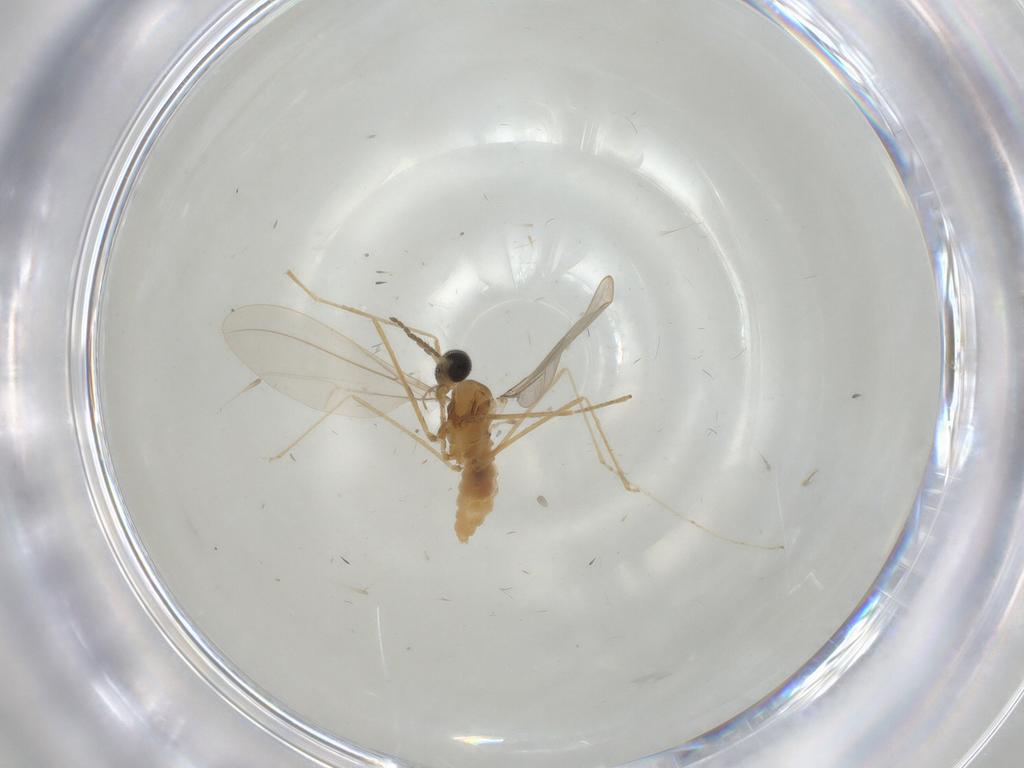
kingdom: Animalia
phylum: Arthropoda
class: Insecta
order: Diptera
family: Cecidomyiidae
